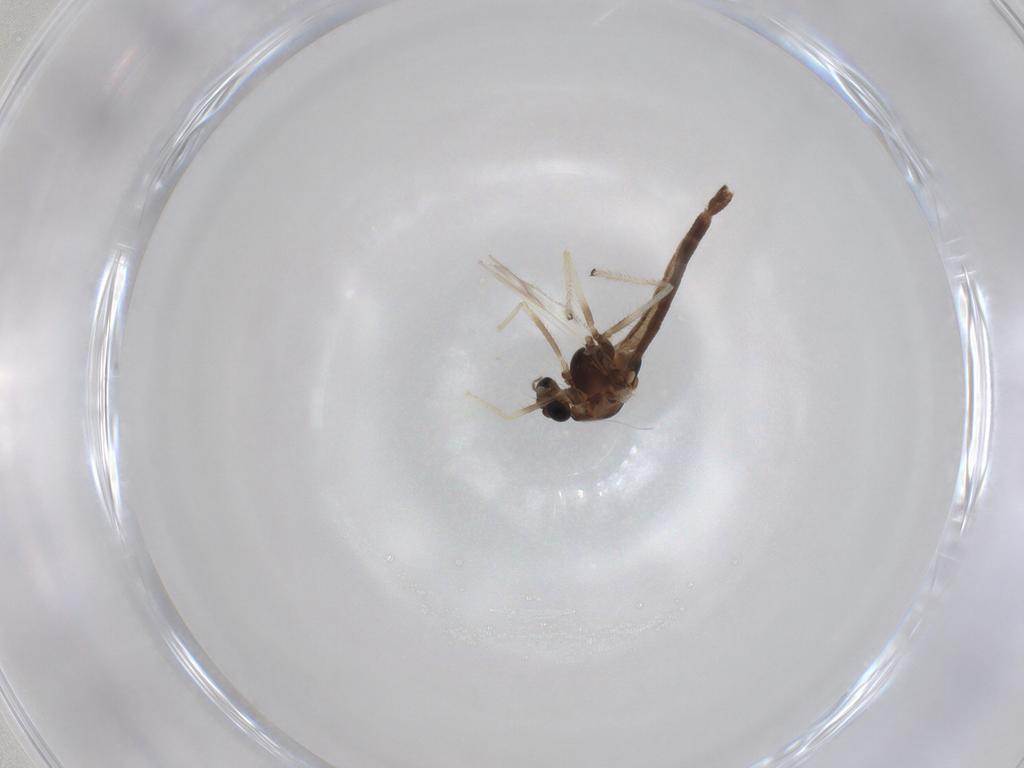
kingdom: Animalia
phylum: Arthropoda
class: Insecta
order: Diptera
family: Chironomidae
